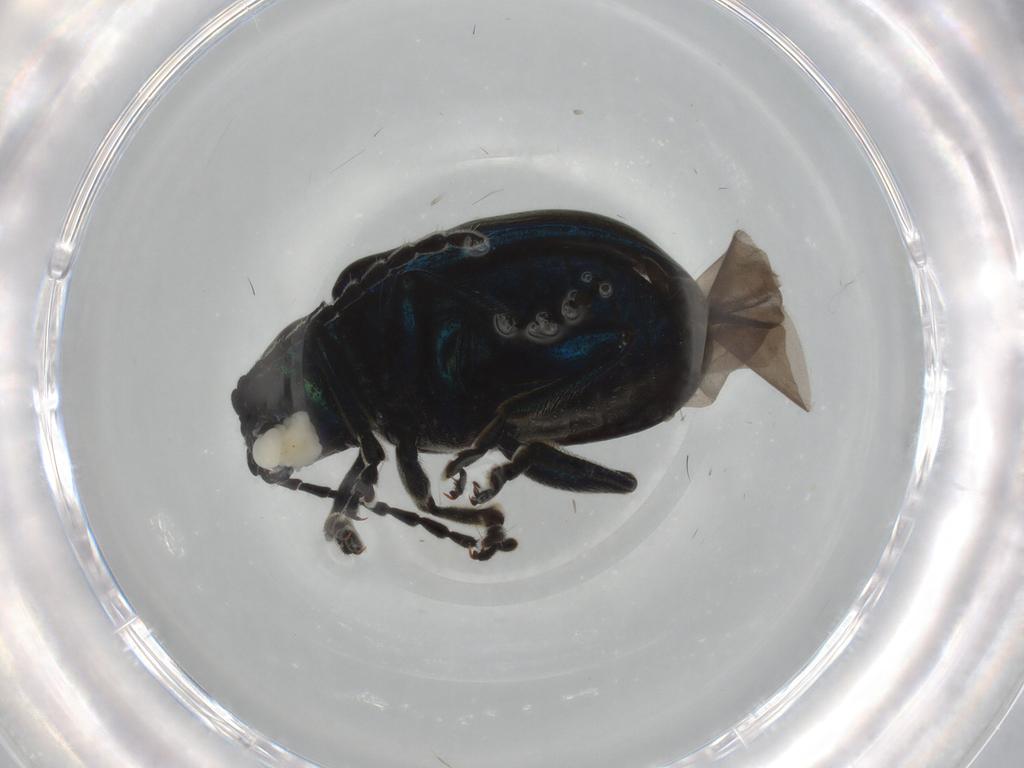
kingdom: Animalia
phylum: Arthropoda
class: Insecta
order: Coleoptera
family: Chrysomelidae
